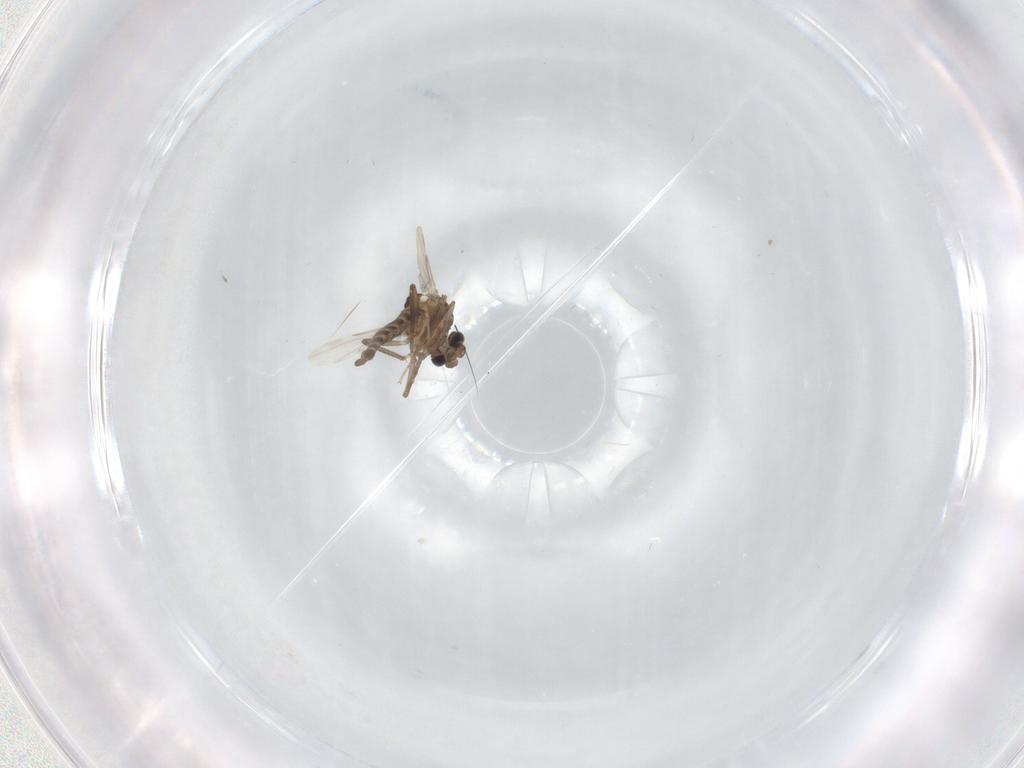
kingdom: Animalia
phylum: Arthropoda
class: Insecta
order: Diptera
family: Ceratopogonidae
